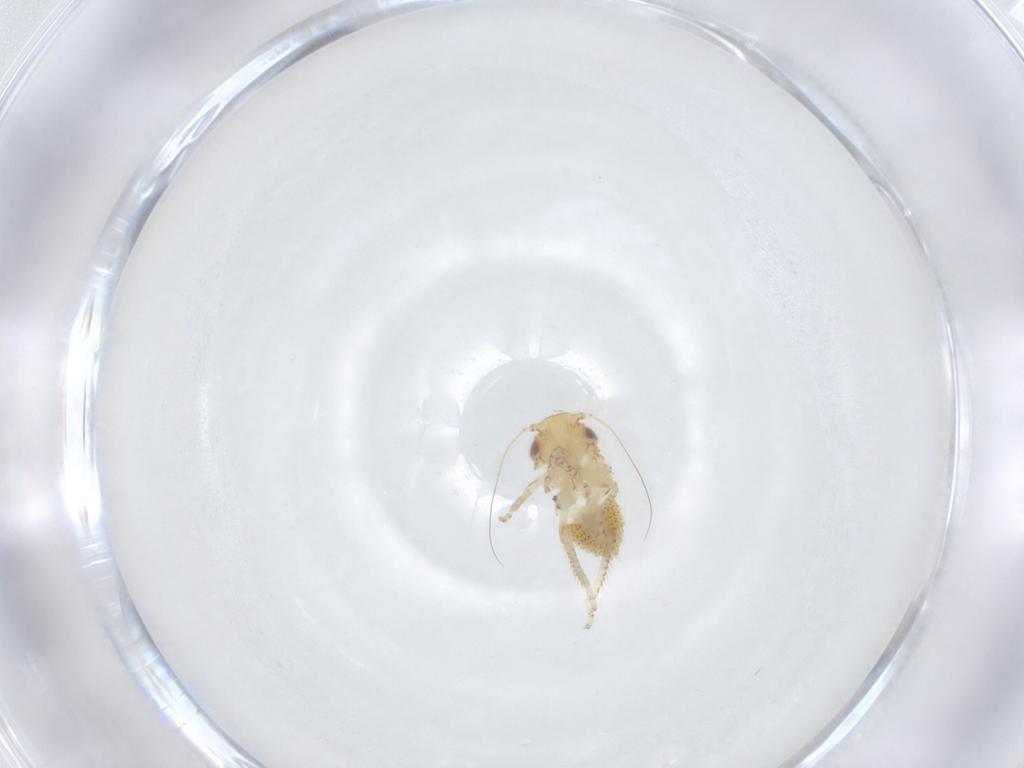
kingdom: Animalia
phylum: Arthropoda
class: Insecta
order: Hemiptera
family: Cicadellidae
